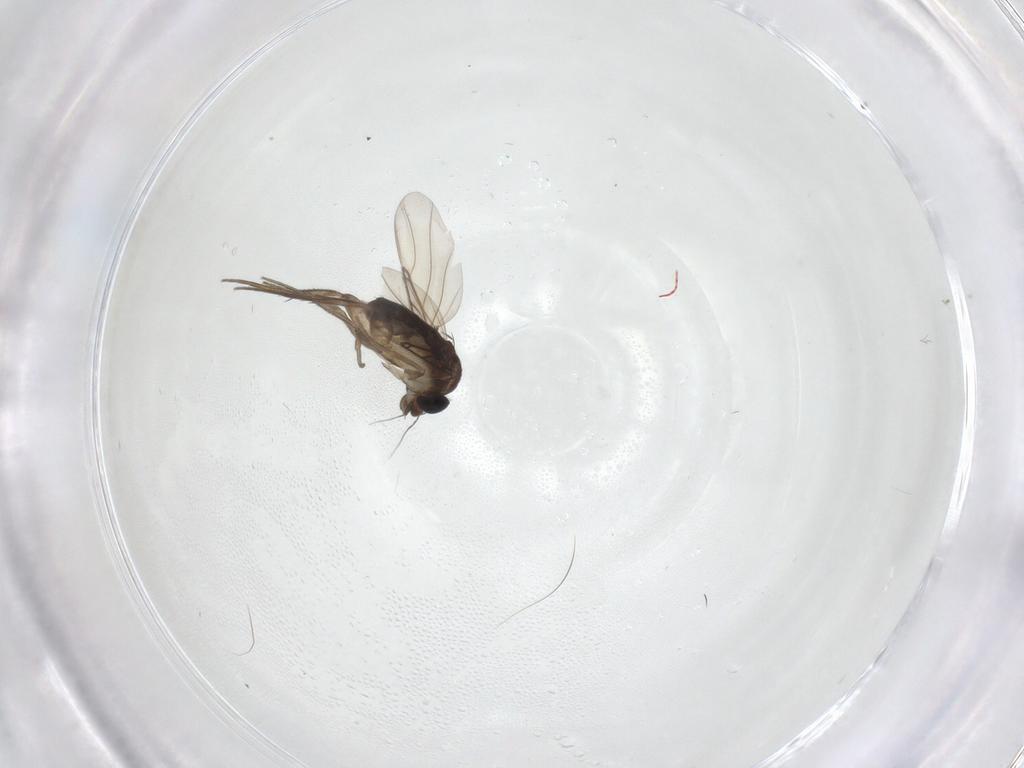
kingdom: Animalia
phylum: Arthropoda
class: Insecta
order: Diptera
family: Phoridae
